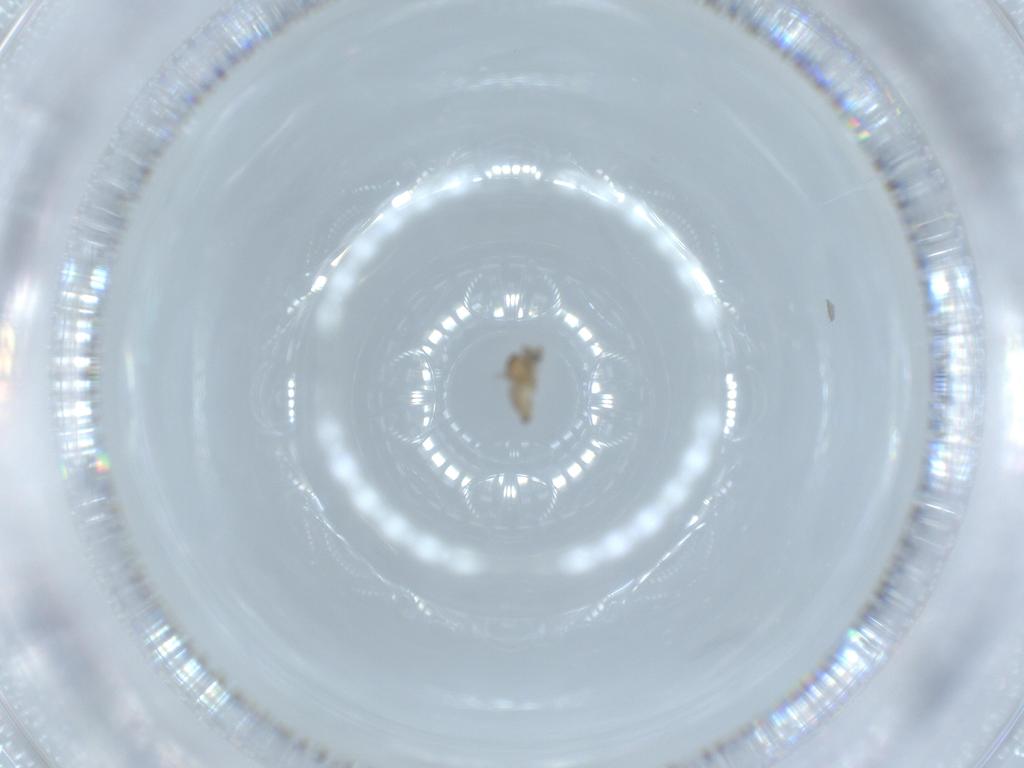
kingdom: Animalia
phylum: Arthropoda
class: Insecta
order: Diptera
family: Cecidomyiidae
